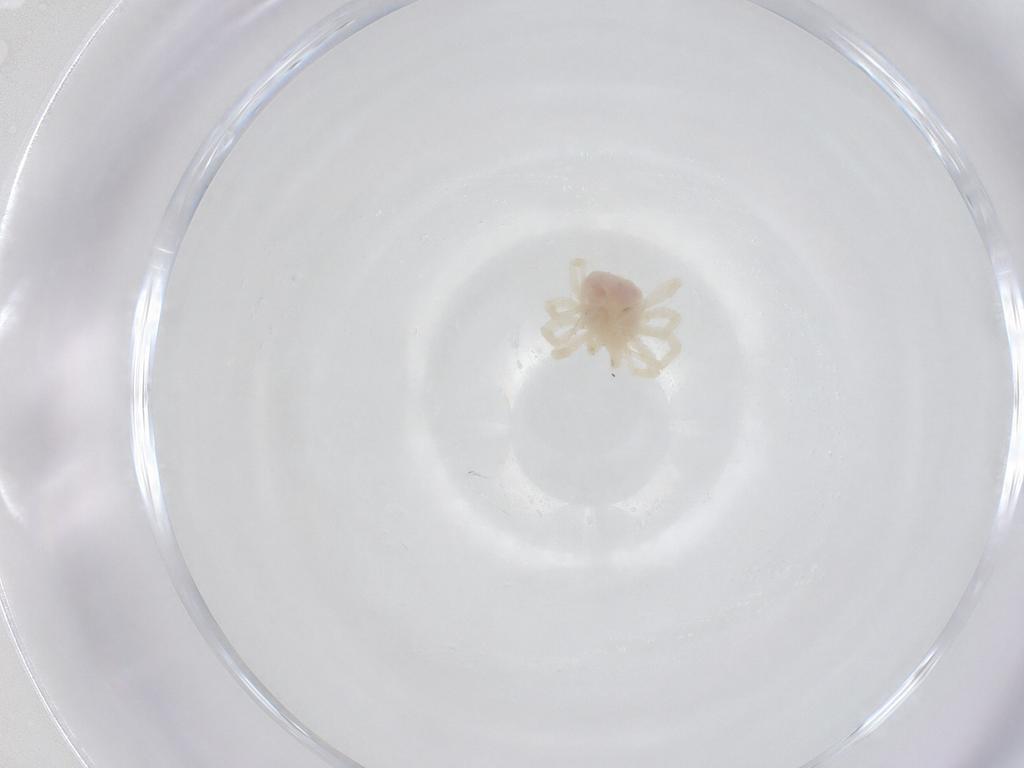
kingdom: Animalia
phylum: Arthropoda
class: Arachnida
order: Trombidiformes
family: Anystidae
